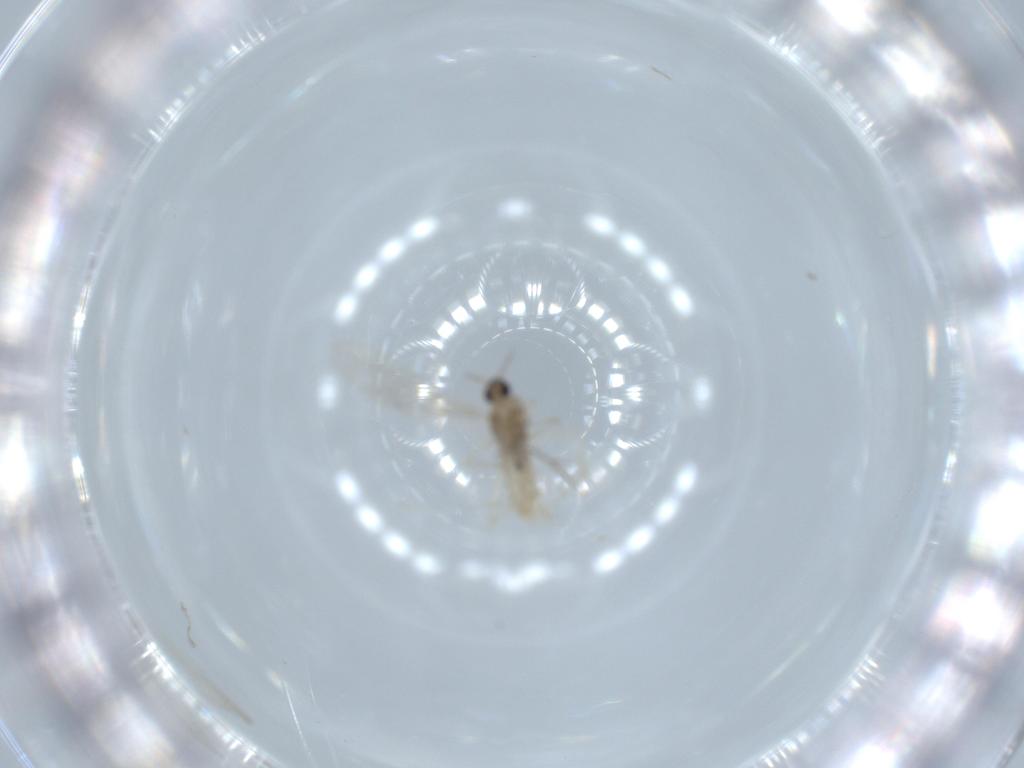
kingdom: Animalia
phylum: Arthropoda
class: Insecta
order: Diptera
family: Cecidomyiidae
